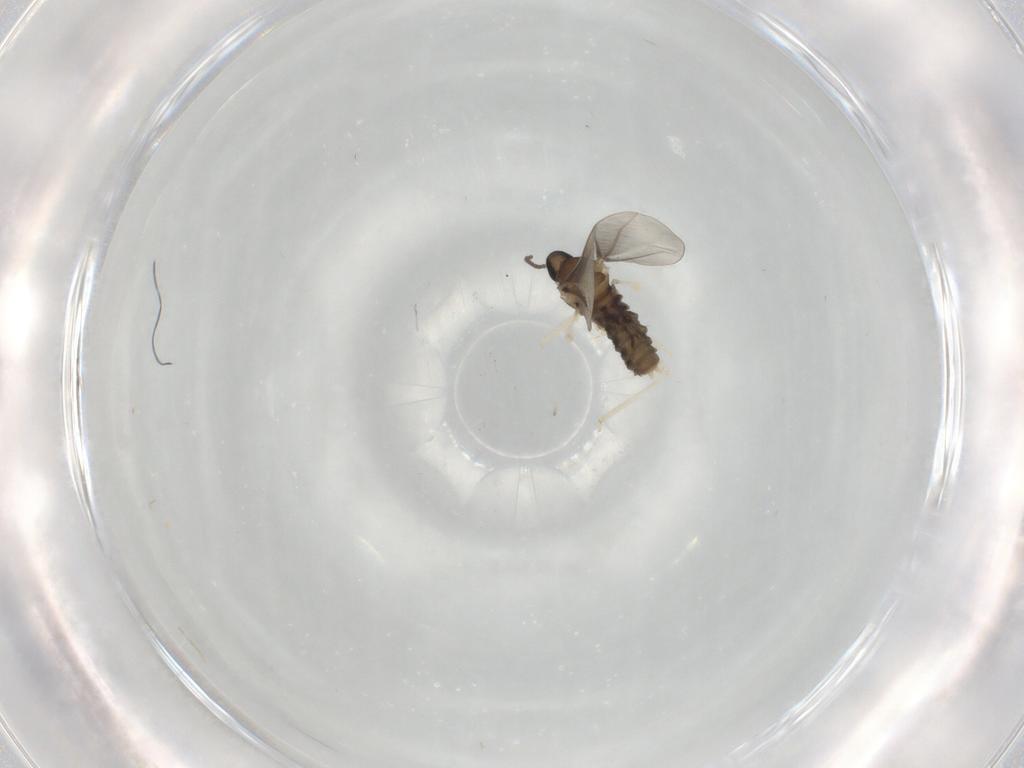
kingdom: Animalia
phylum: Arthropoda
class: Insecta
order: Diptera
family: Cecidomyiidae
